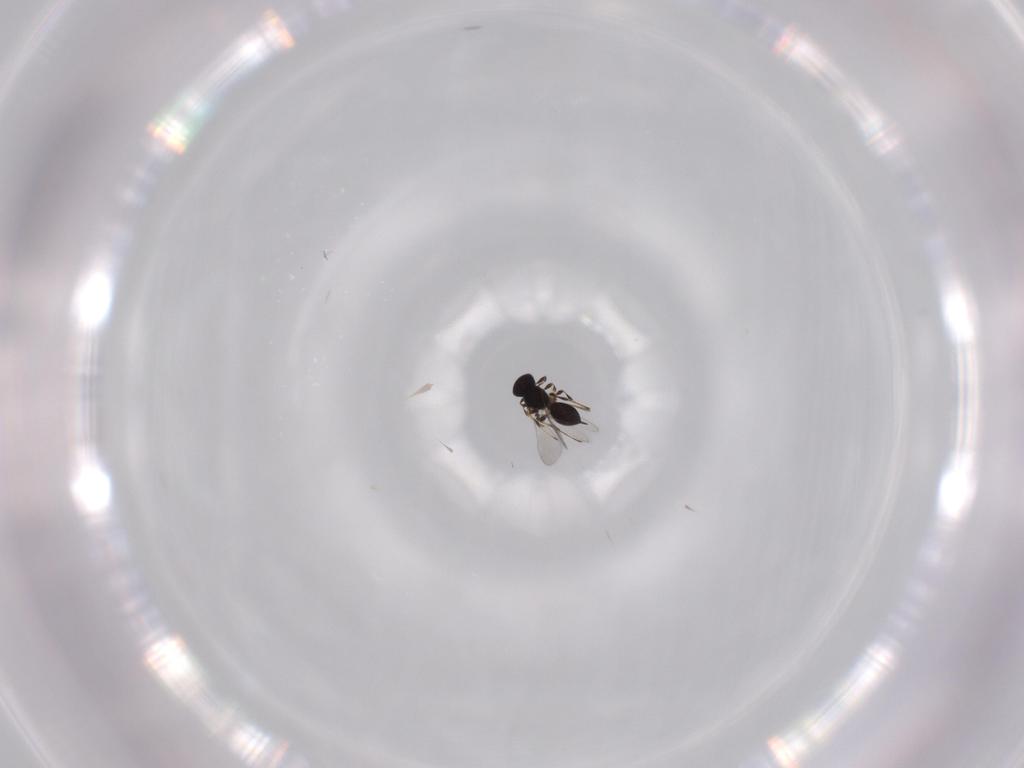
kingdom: Animalia
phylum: Arthropoda
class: Insecta
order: Hymenoptera
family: Platygastridae
